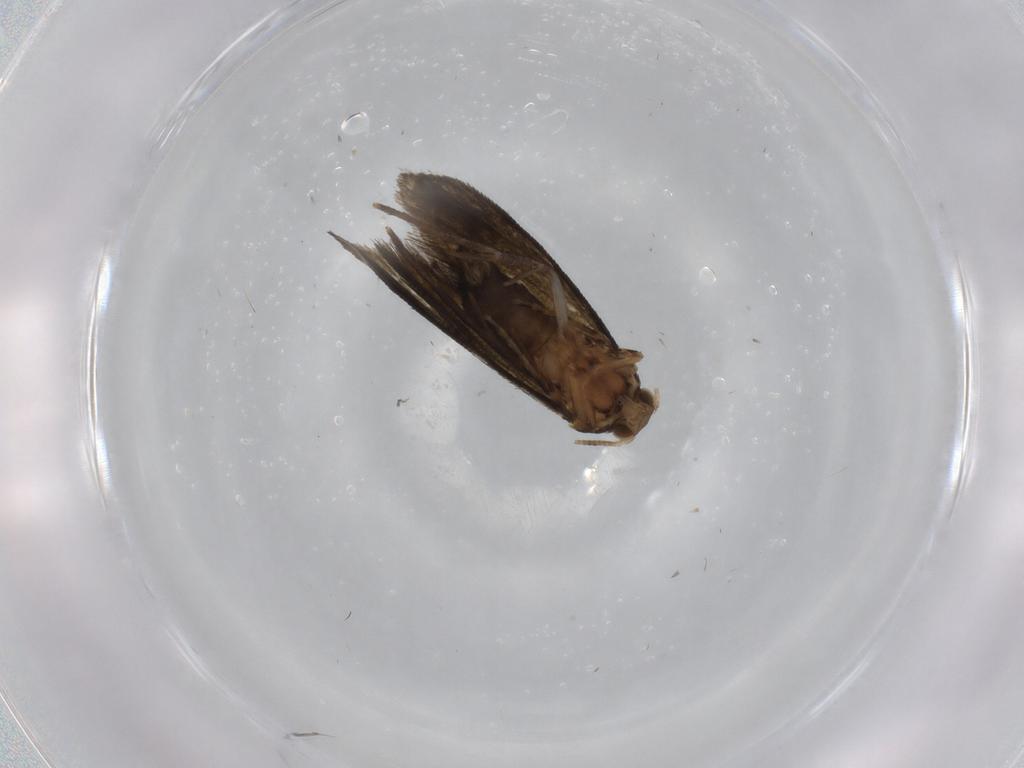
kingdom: Animalia
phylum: Arthropoda
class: Insecta
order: Lepidoptera
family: Crambidae
